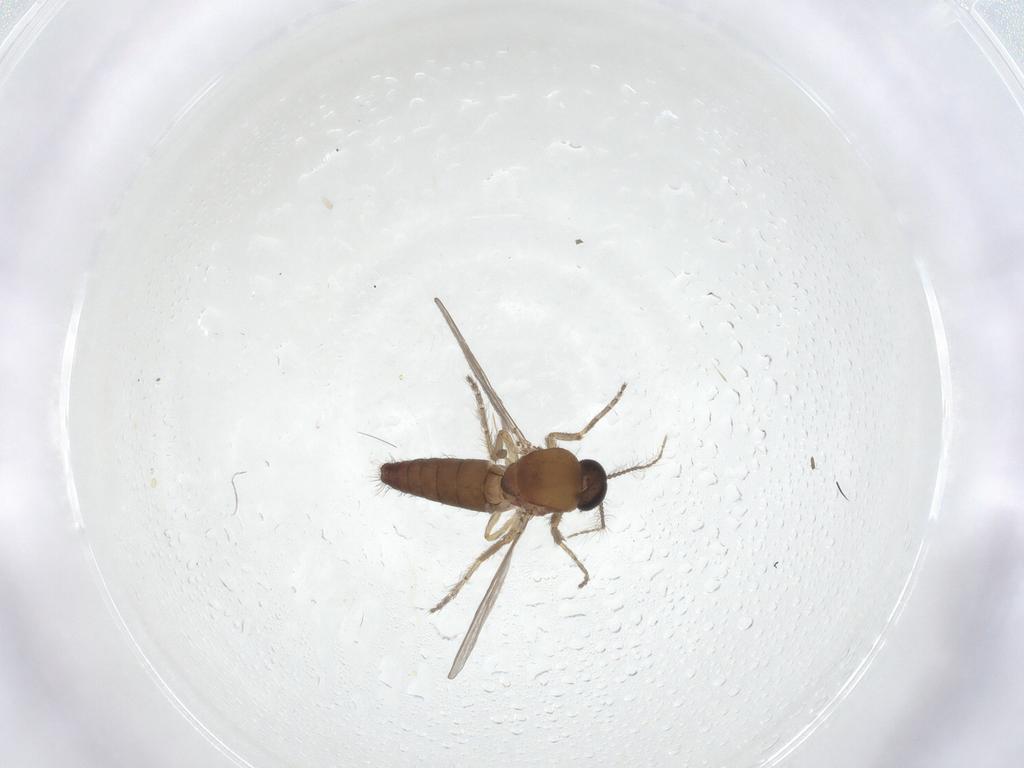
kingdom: Animalia
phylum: Arthropoda
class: Insecta
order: Diptera
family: Ceratopogonidae
